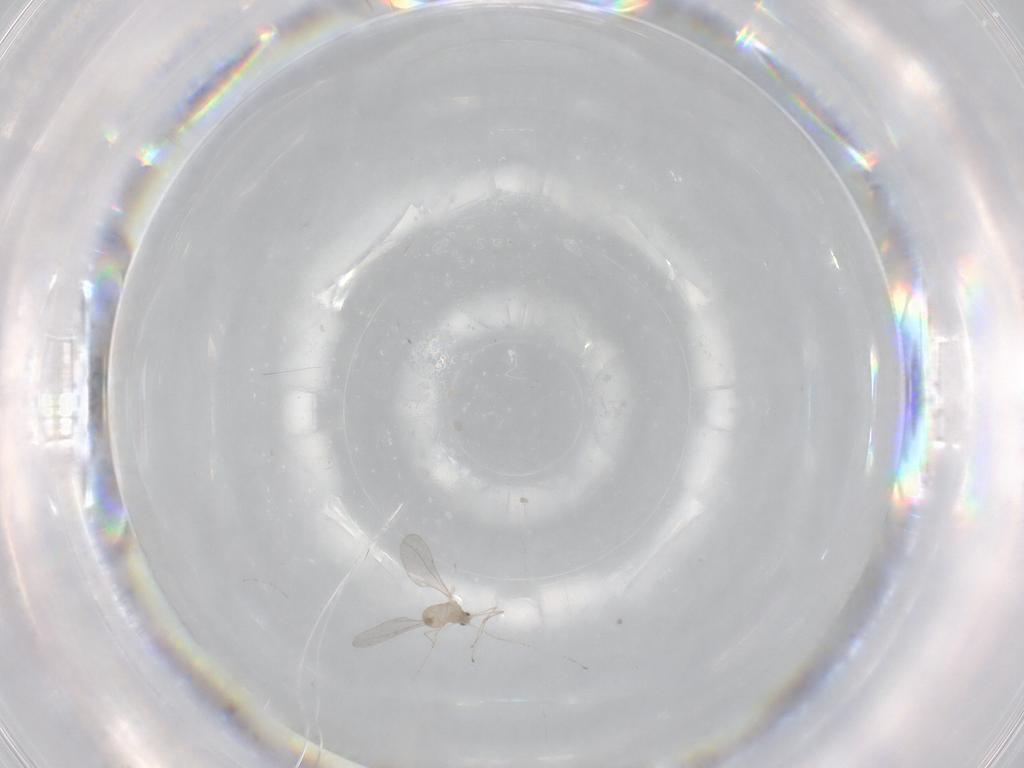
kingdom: Animalia
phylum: Arthropoda
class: Insecta
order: Diptera
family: Cecidomyiidae
